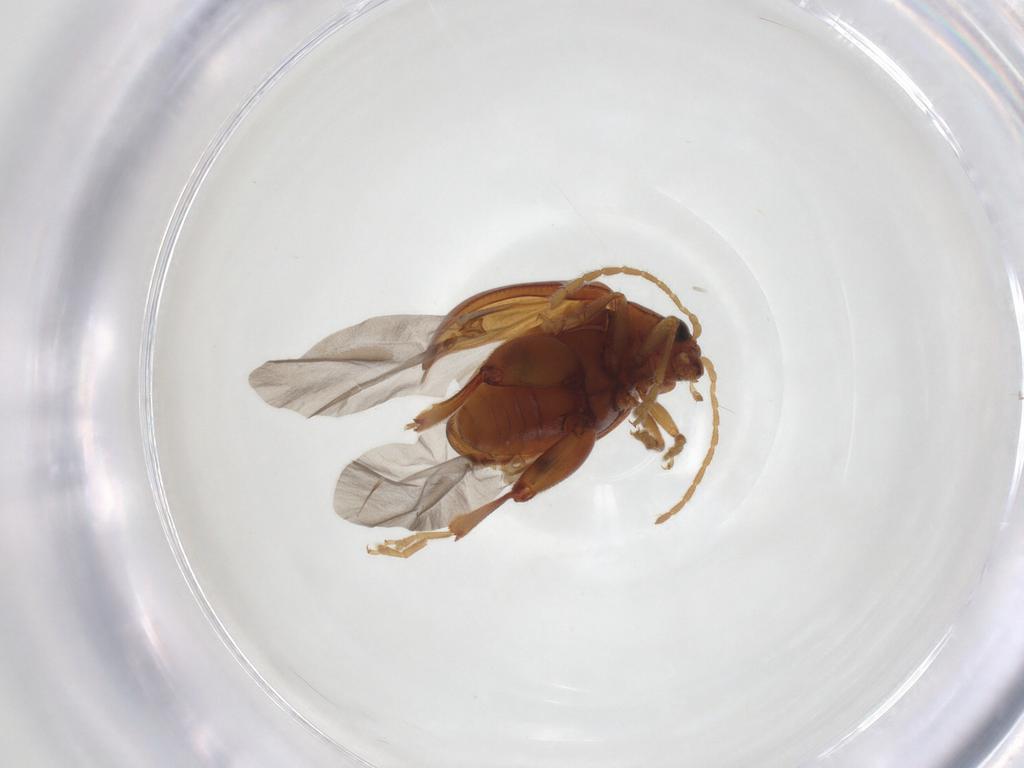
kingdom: Animalia
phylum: Arthropoda
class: Insecta
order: Coleoptera
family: Chrysomelidae
